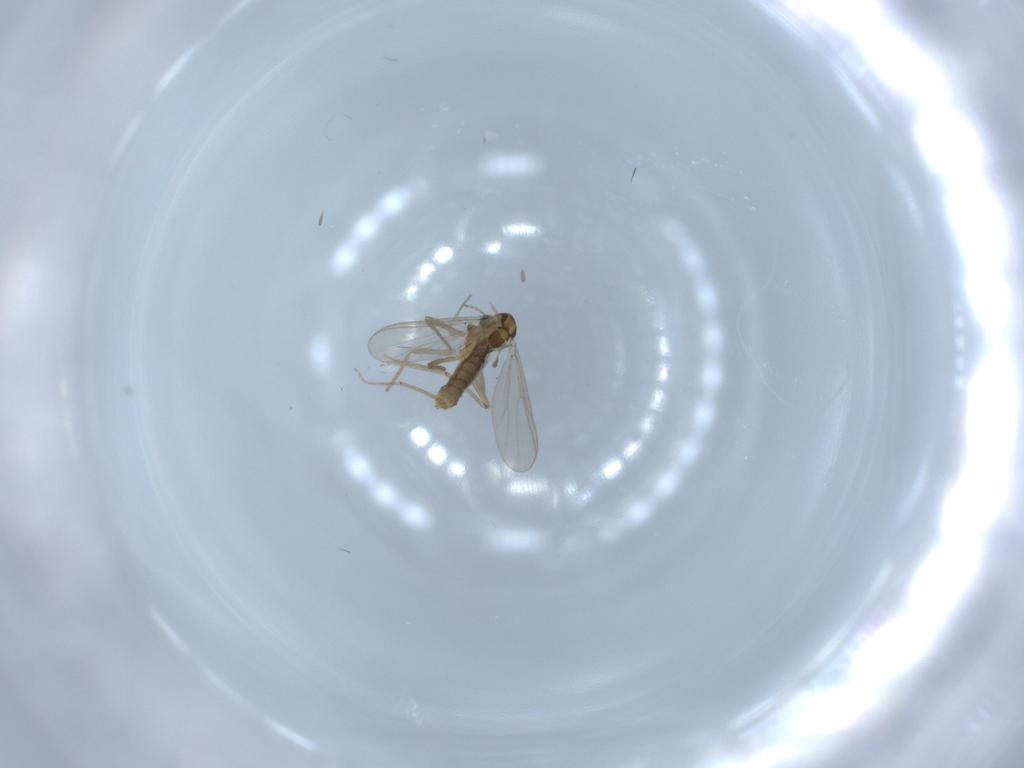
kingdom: Animalia
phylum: Arthropoda
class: Insecta
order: Diptera
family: Chironomidae
